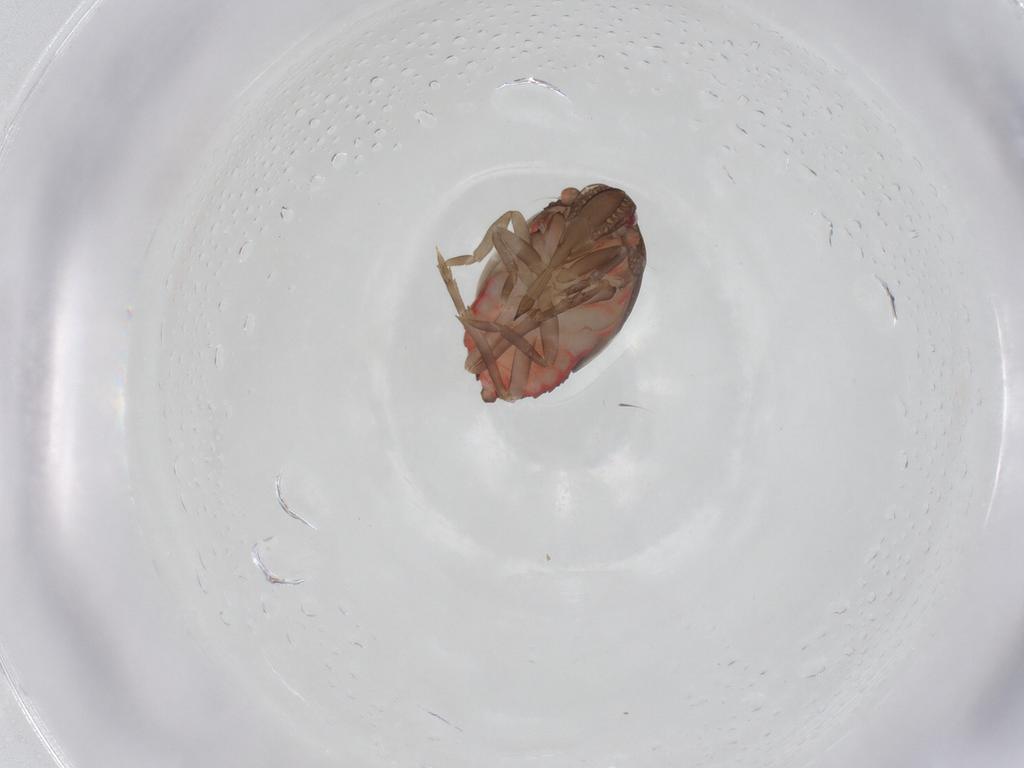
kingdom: Animalia
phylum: Arthropoda
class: Insecta
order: Hemiptera
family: Derbidae
